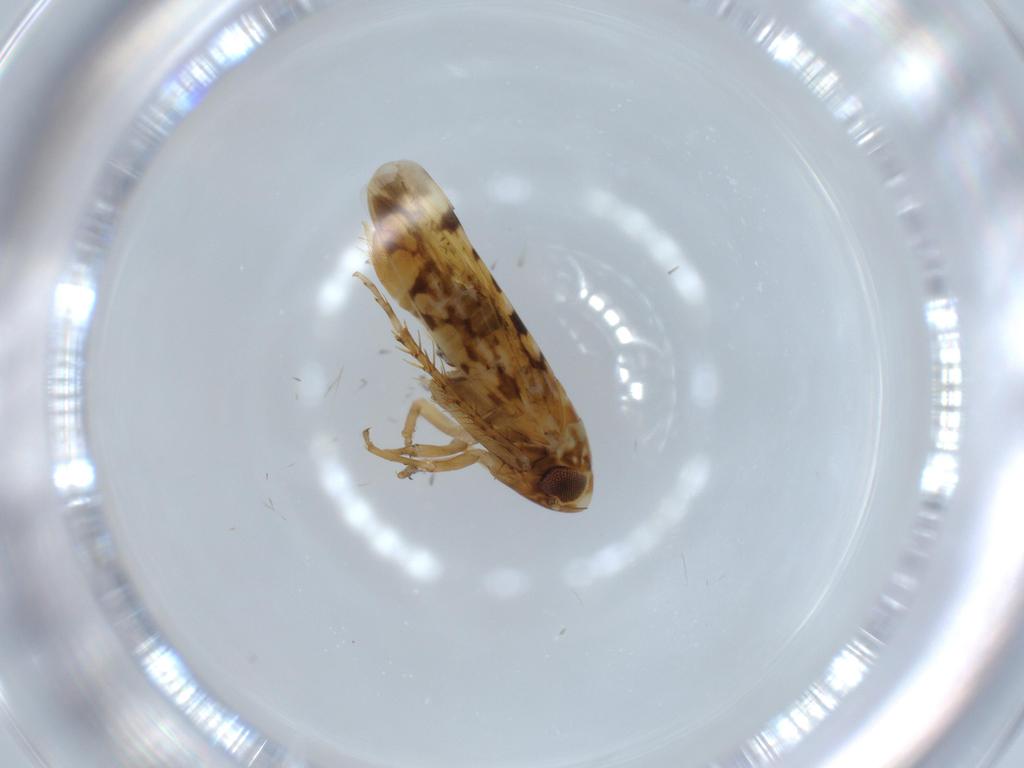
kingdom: Animalia
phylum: Arthropoda
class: Insecta
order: Hemiptera
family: Cicadellidae
